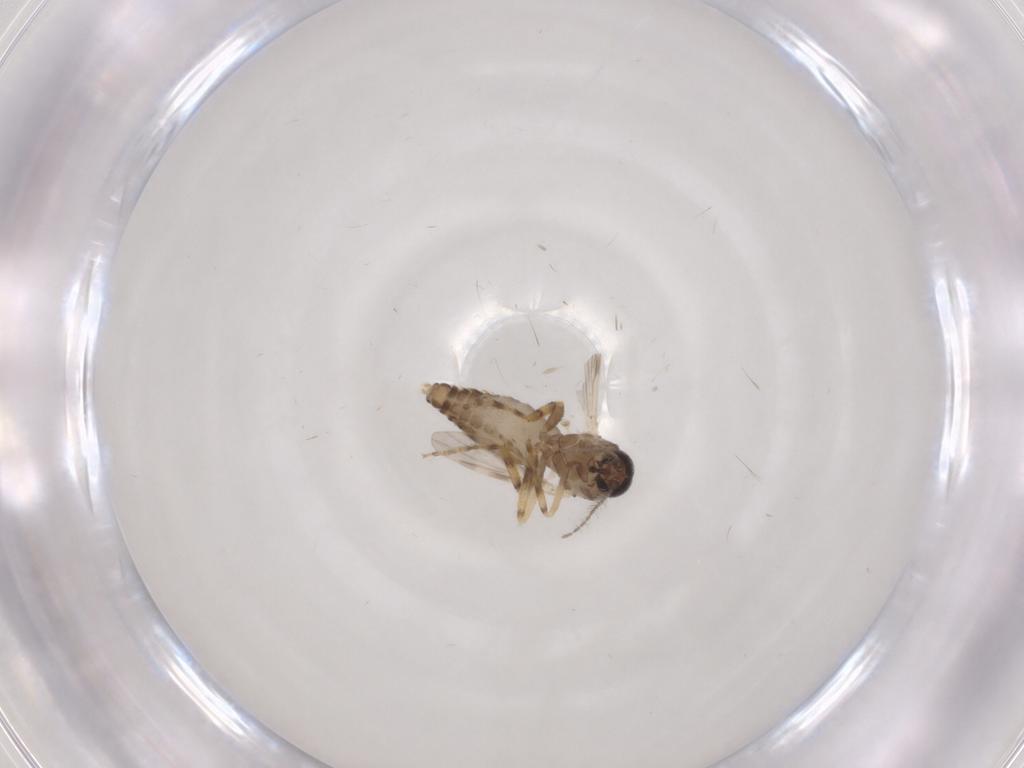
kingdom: Animalia
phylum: Arthropoda
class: Insecta
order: Diptera
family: Ceratopogonidae
